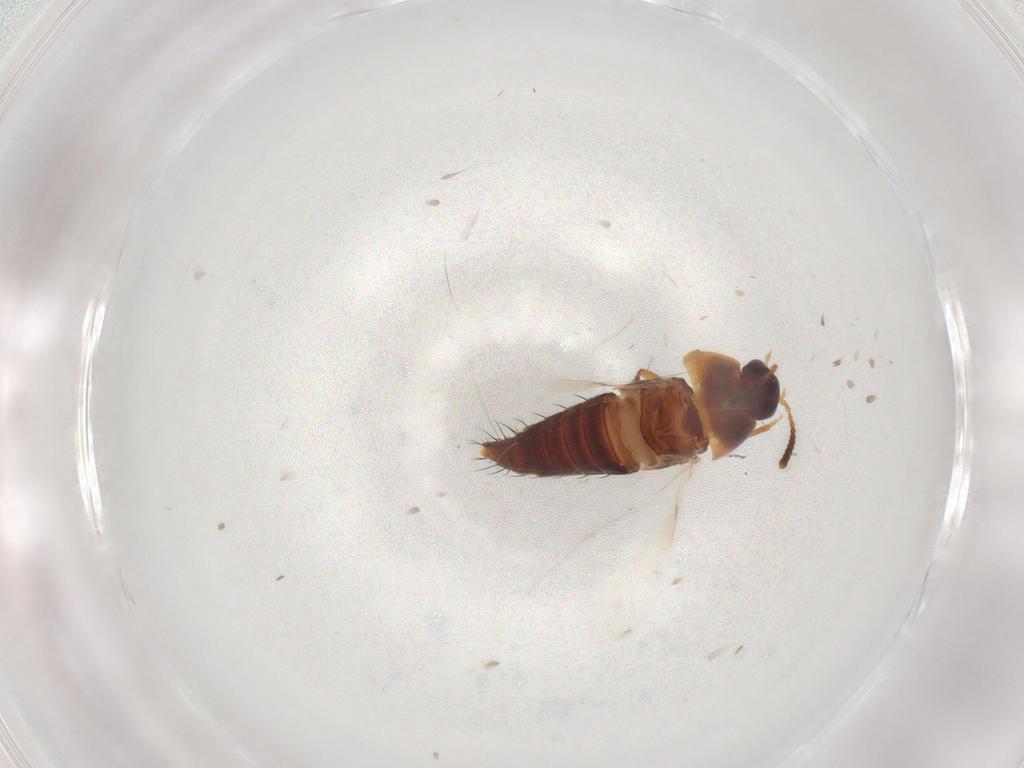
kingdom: Animalia
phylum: Arthropoda
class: Insecta
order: Coleoptera
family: Staphylinidae
